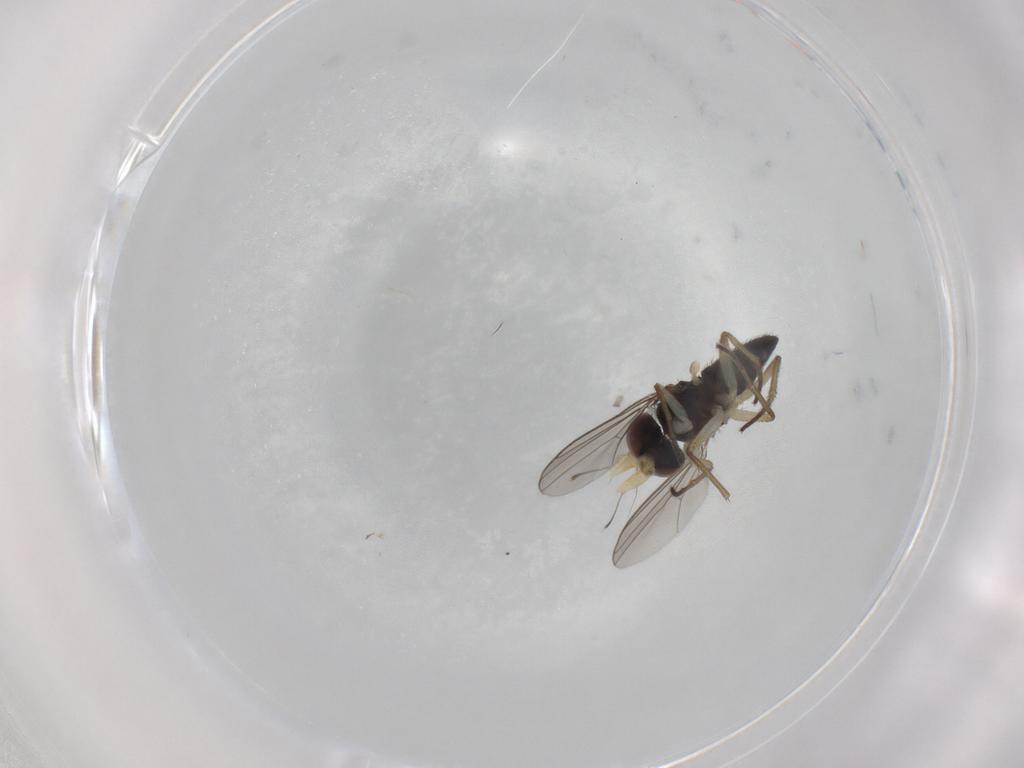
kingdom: Animalia
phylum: Arthropoda
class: Insecta
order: Diptera
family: Dolichopodidae
